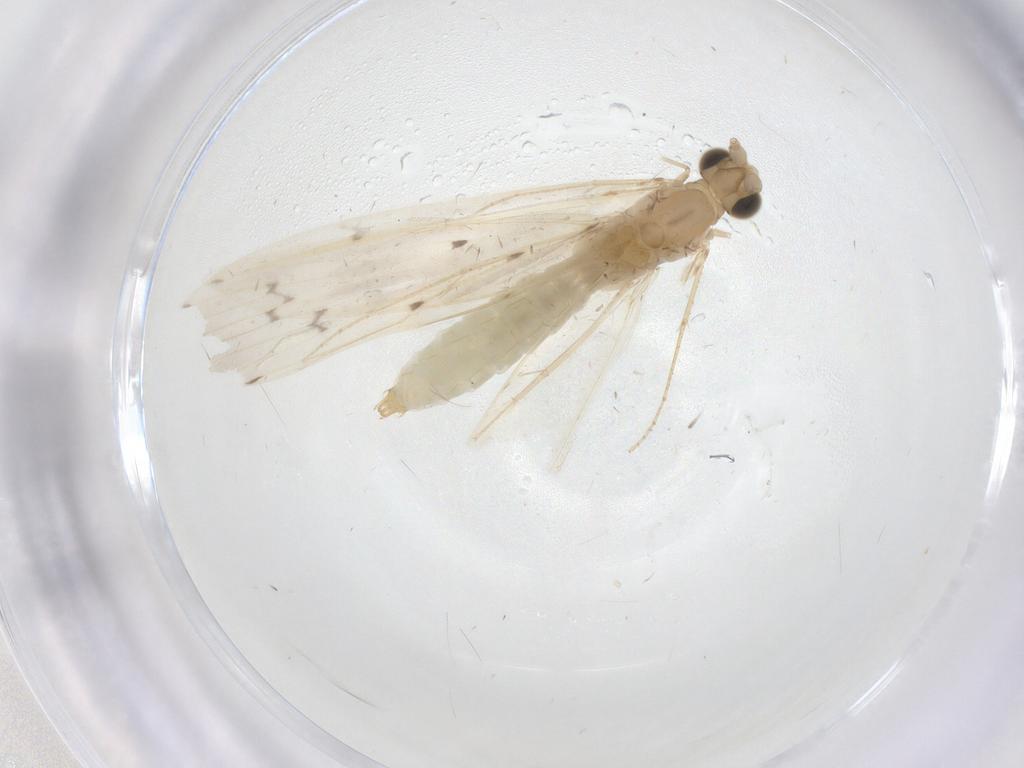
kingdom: Animalia
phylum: Arthropoda
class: Insecta
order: Trichoptera
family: Leptoceridae
